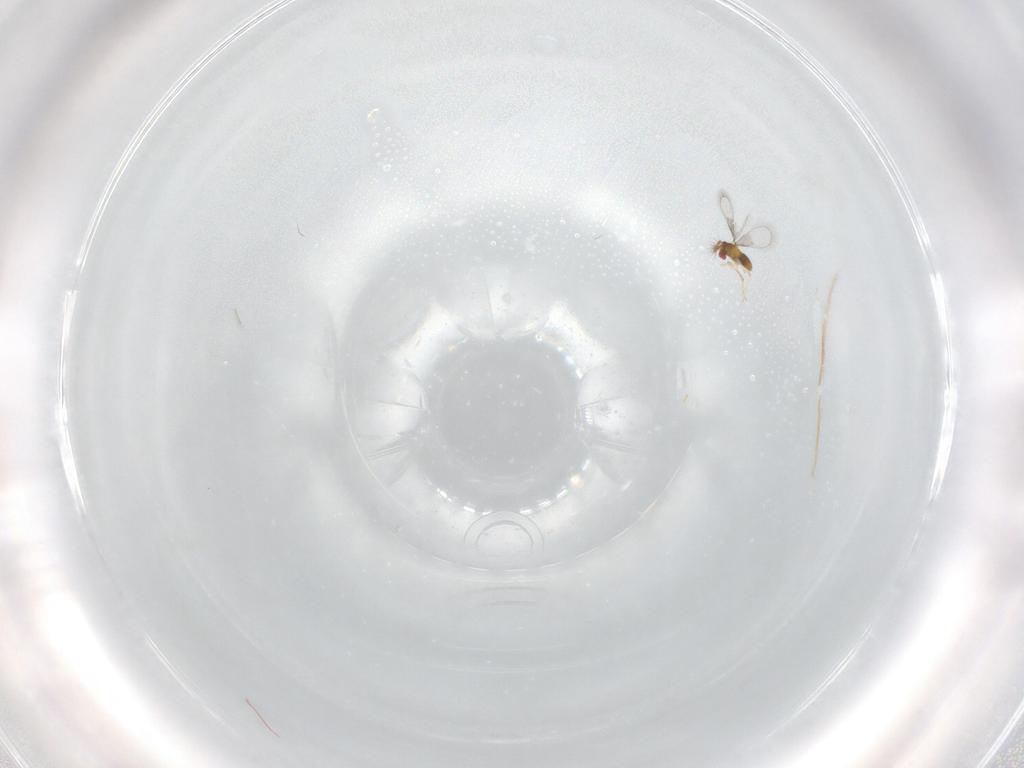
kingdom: Animalia
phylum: Arthropoda
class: Insecta
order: Hymenoptera
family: Trichogrammatidae
